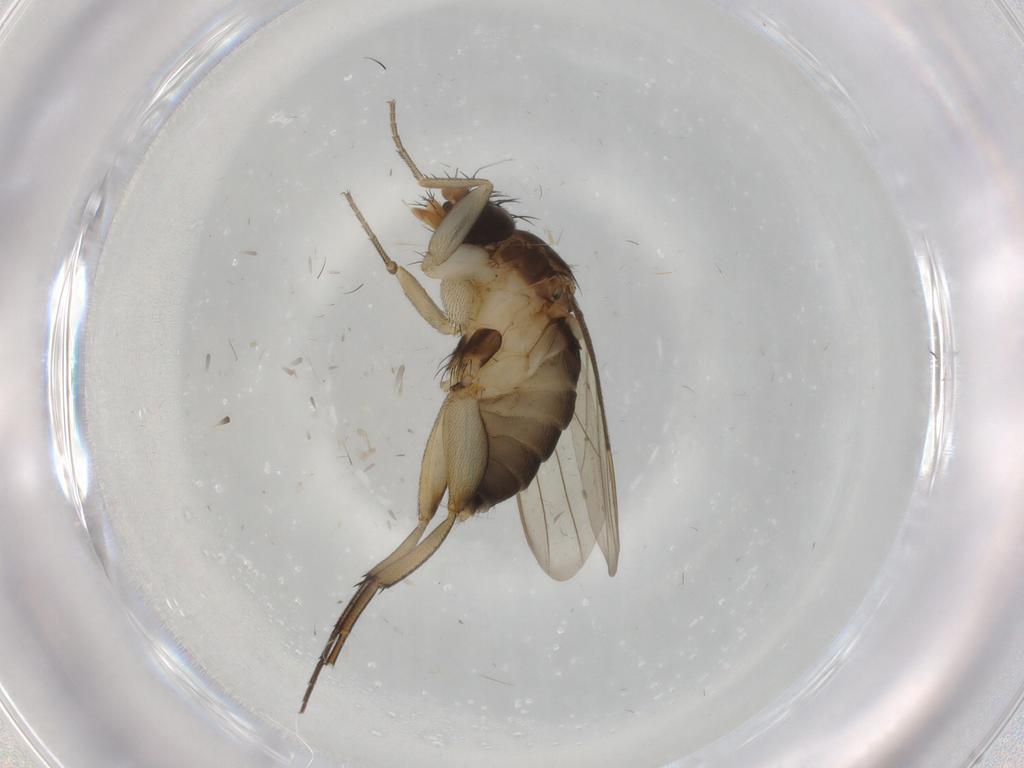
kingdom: Animalia
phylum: Arthropoda
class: Insecta
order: Diptera
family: Phoridae
